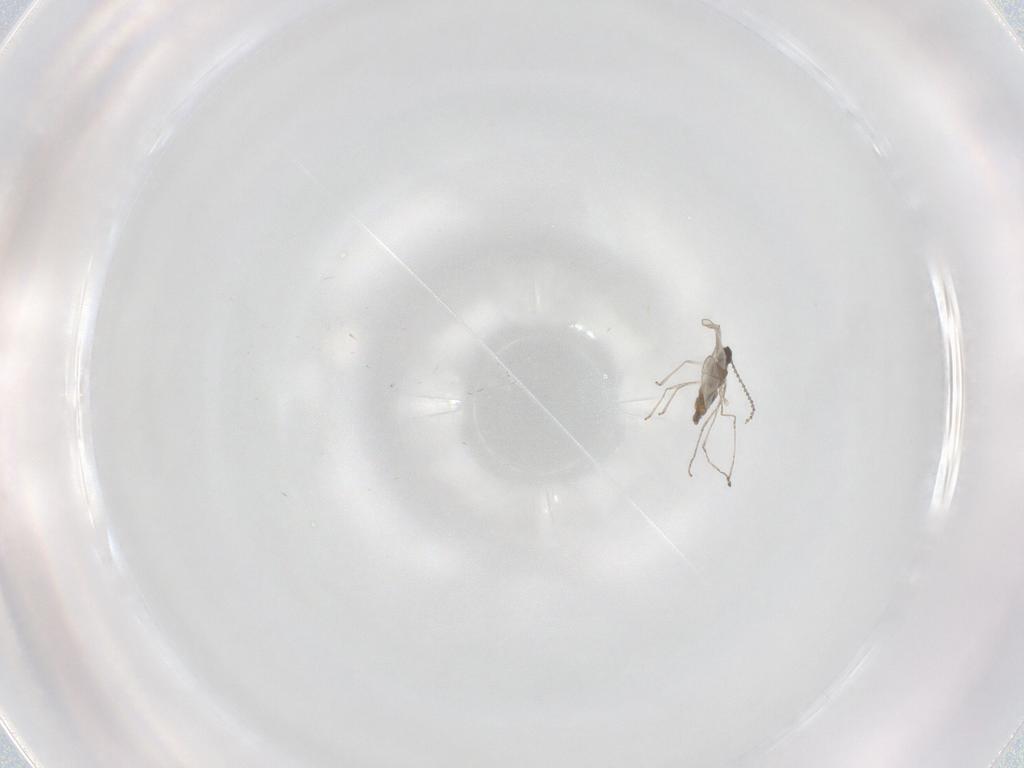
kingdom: Animalia
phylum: Arthropoda
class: Insecta
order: Diptera
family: Cecidomyiidae
